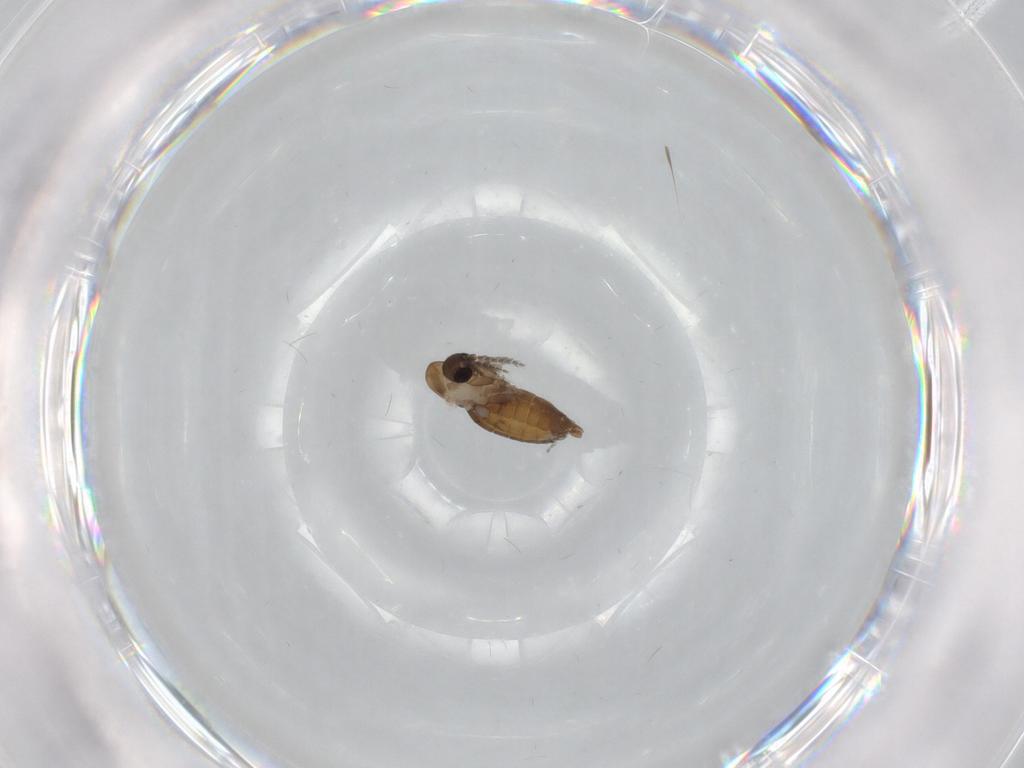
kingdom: Animalia
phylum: Arthropoda
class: Insecta
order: Diptera
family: Psychodidae
